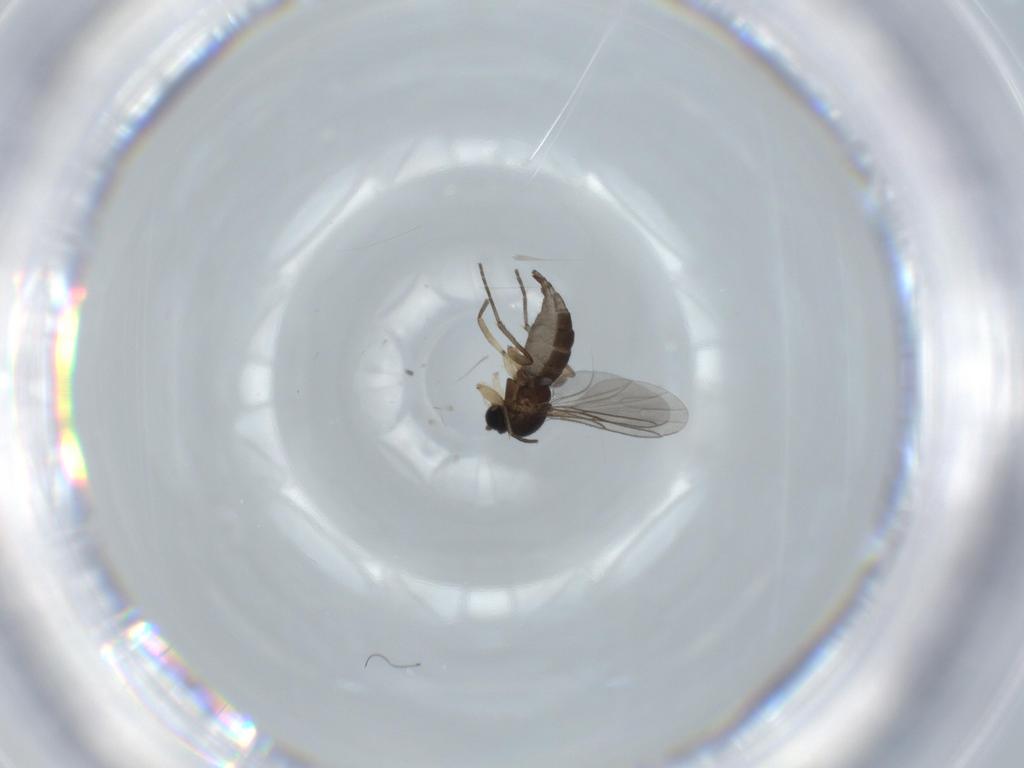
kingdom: Animalia
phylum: Arthropoda
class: Insecta
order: Diptera
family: Sciaridae
